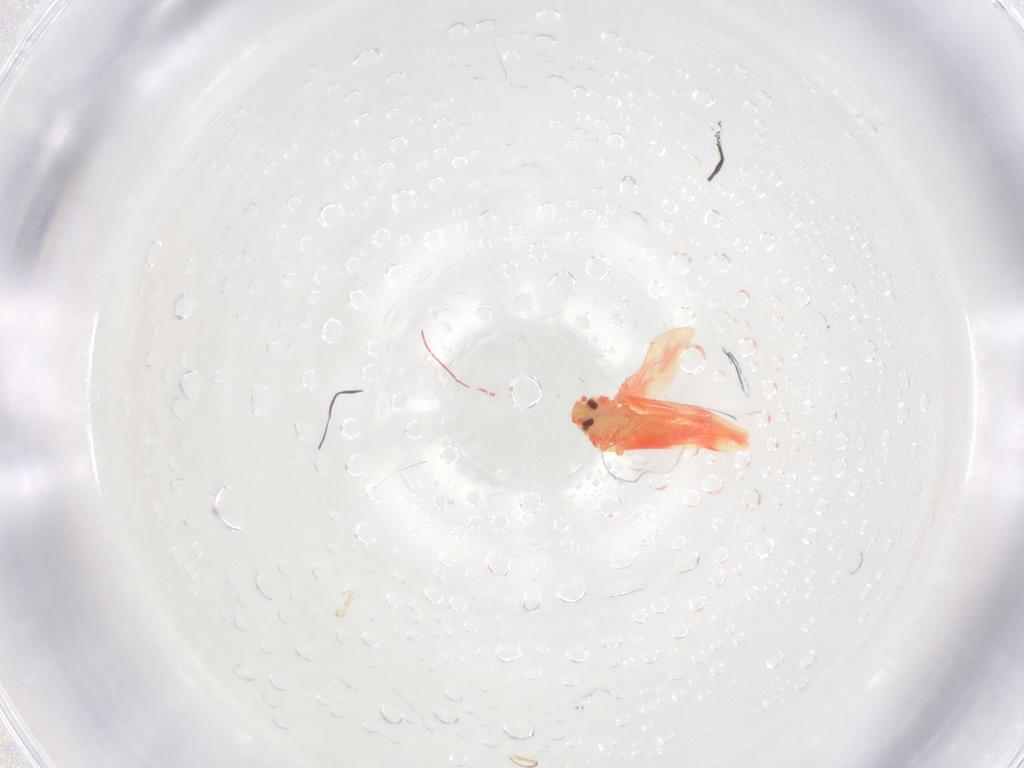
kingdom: Animalia
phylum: Arthropoda
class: Insecta
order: Hemiptera
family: Aleyrodidae
